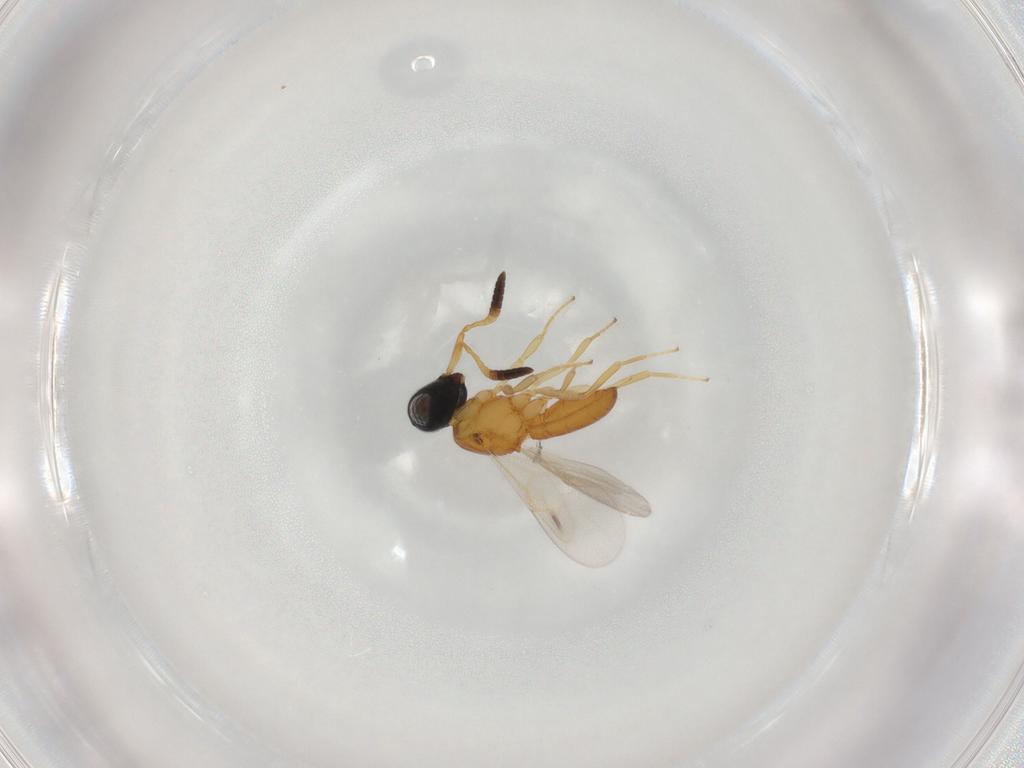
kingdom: Animalia
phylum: Arthropoda
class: Insecta
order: Hymenoptera
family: Scelionidae
